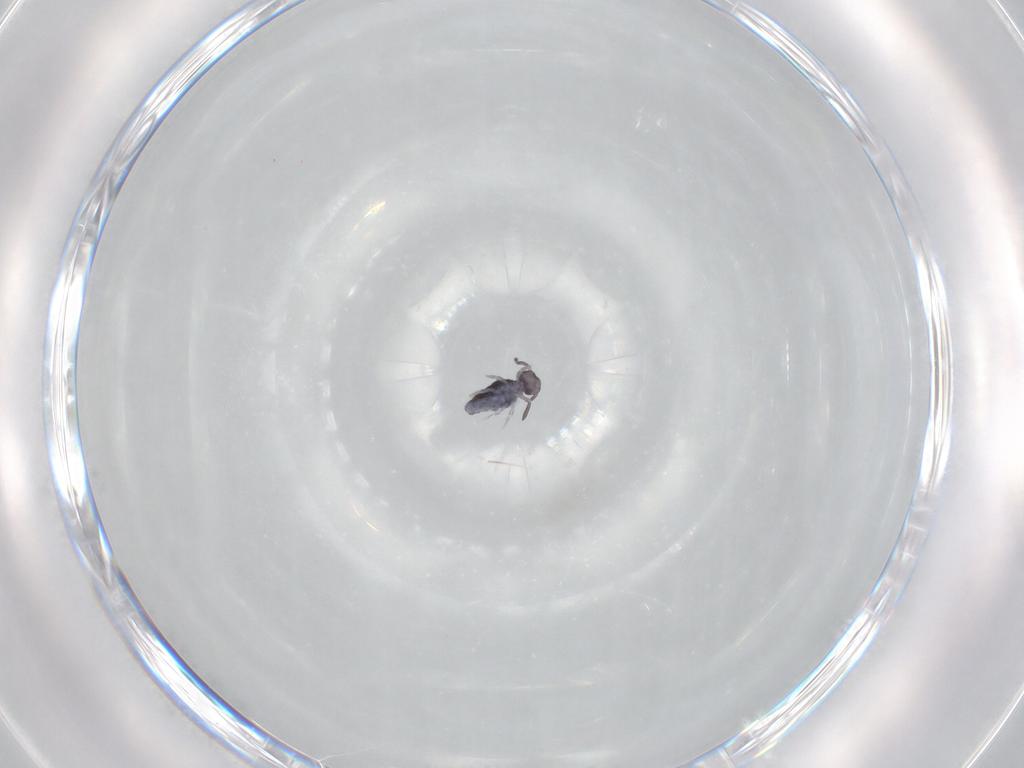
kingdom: Animalia
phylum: Arthropoda
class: Collembola
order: Symphypleona
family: Katiannidae
